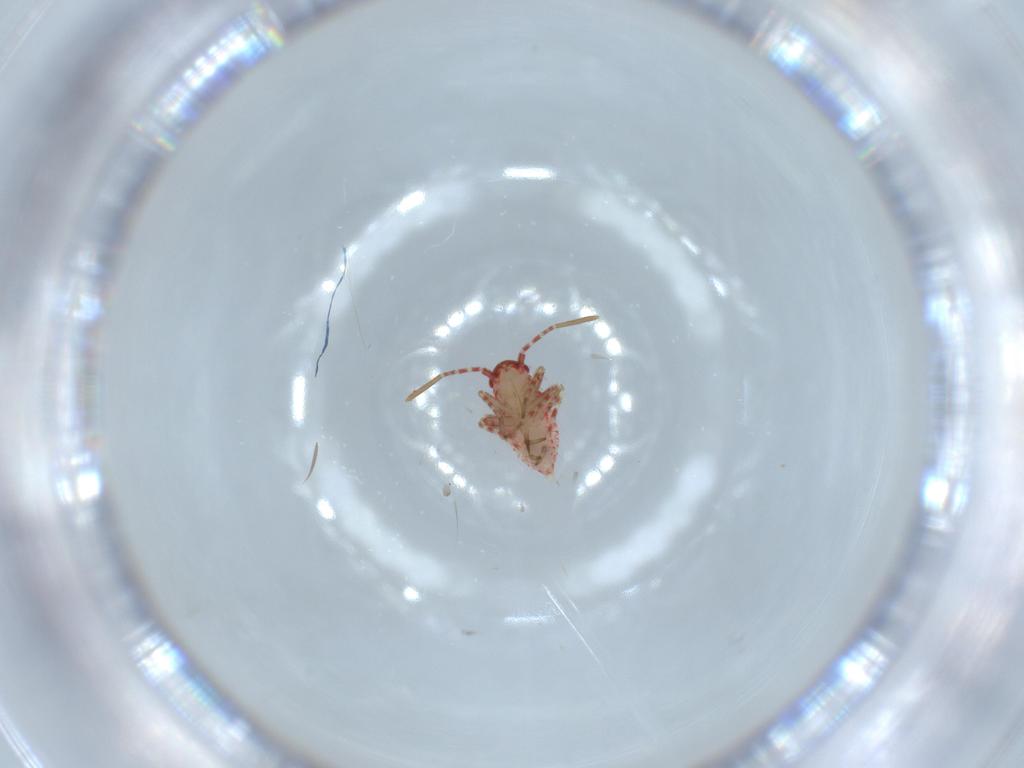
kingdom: Animalia
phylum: Arthropoda
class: Insecta
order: Hemiptera
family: Miridae
